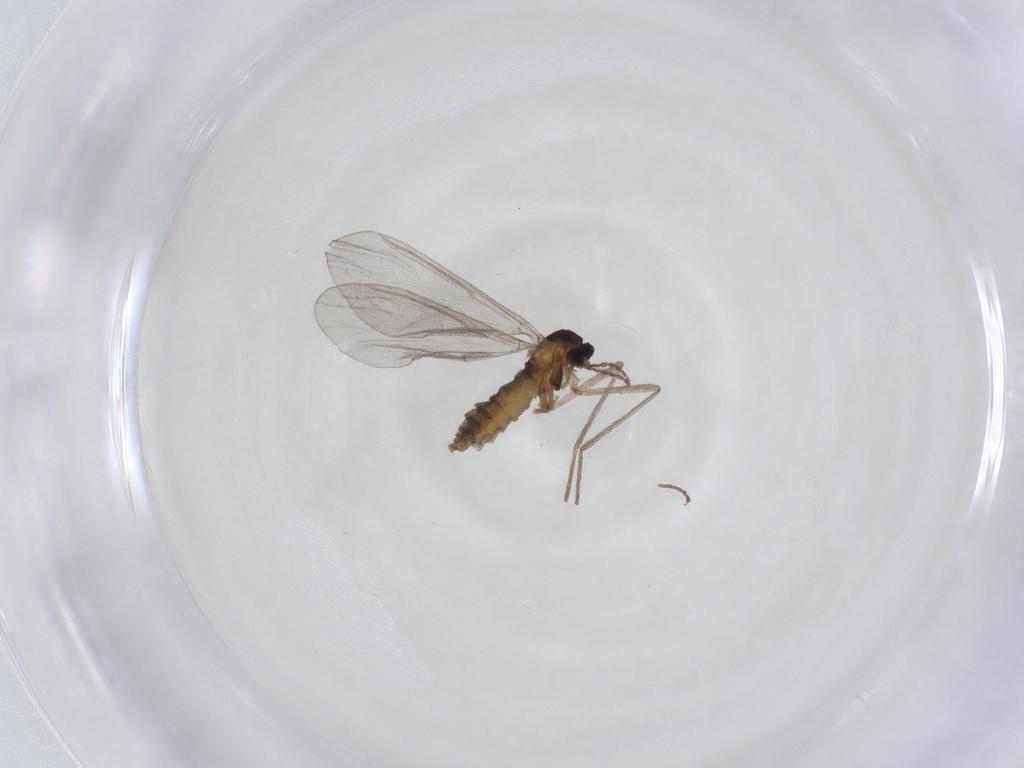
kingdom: Animalia
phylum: Arthropoda
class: Insecta
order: Diptera
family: Cecidomyiidae
